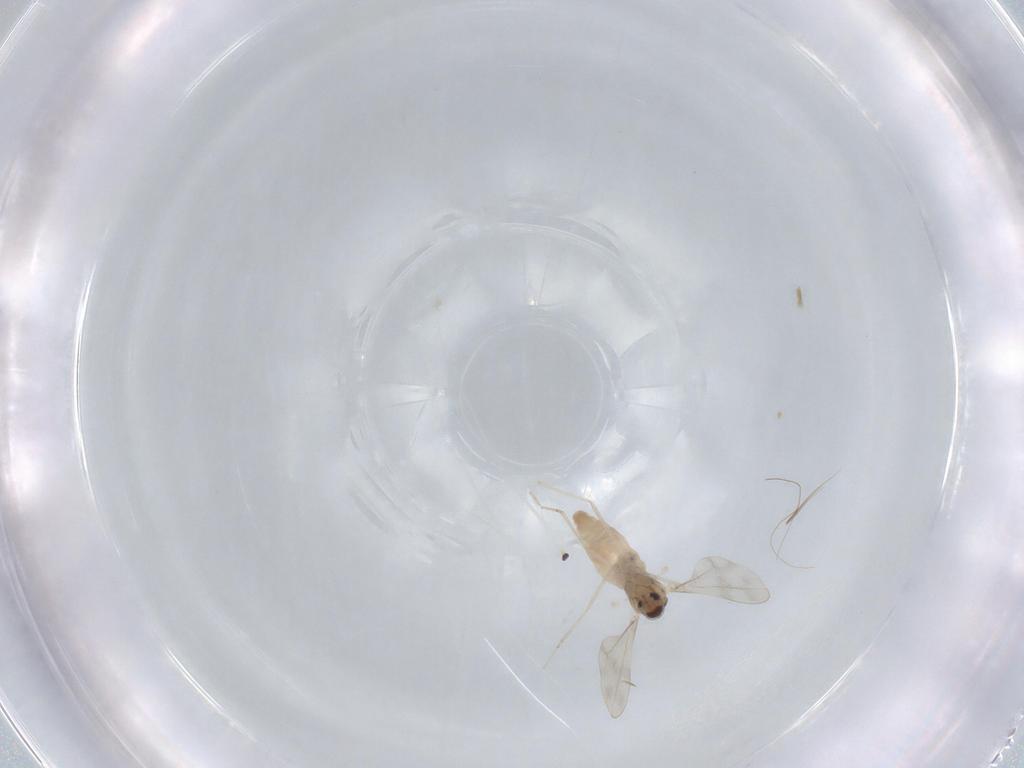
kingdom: Animalia
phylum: Arthropoda
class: Insecta
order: Diptera
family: Cecidomyiidae
